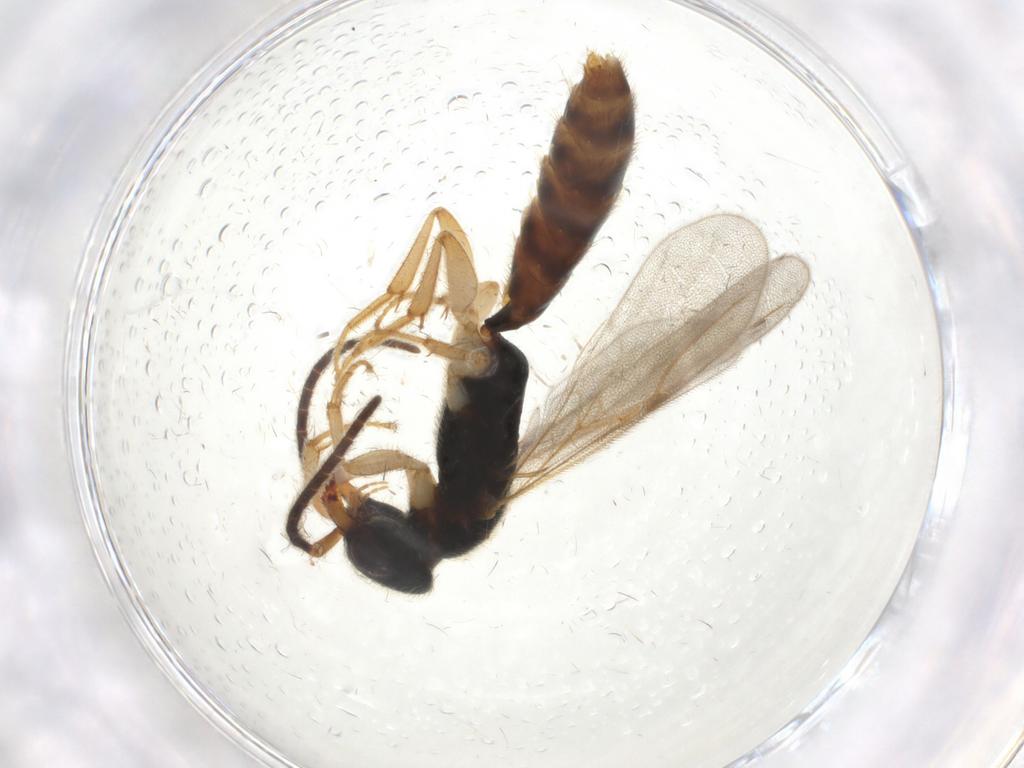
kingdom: Animalia
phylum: Arthropoda
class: Insecta
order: Hymenoptera
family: Bethylidae
